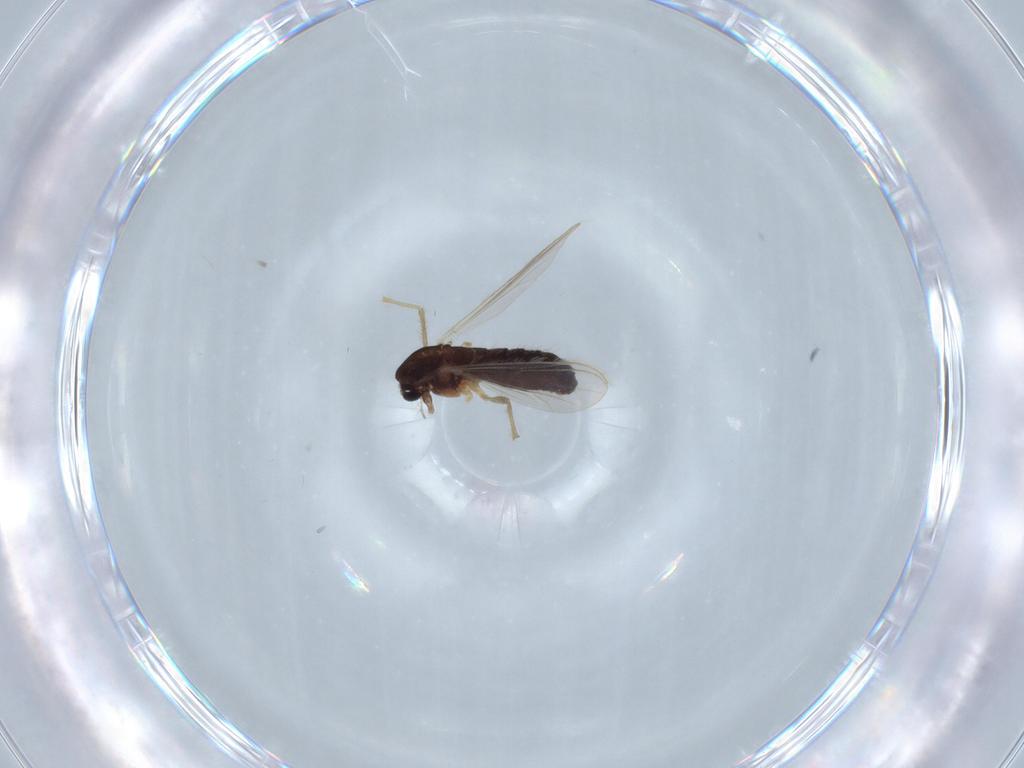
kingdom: Animalia
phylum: Arthropoda
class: Insecta
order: Diptera
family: Chironomidae
